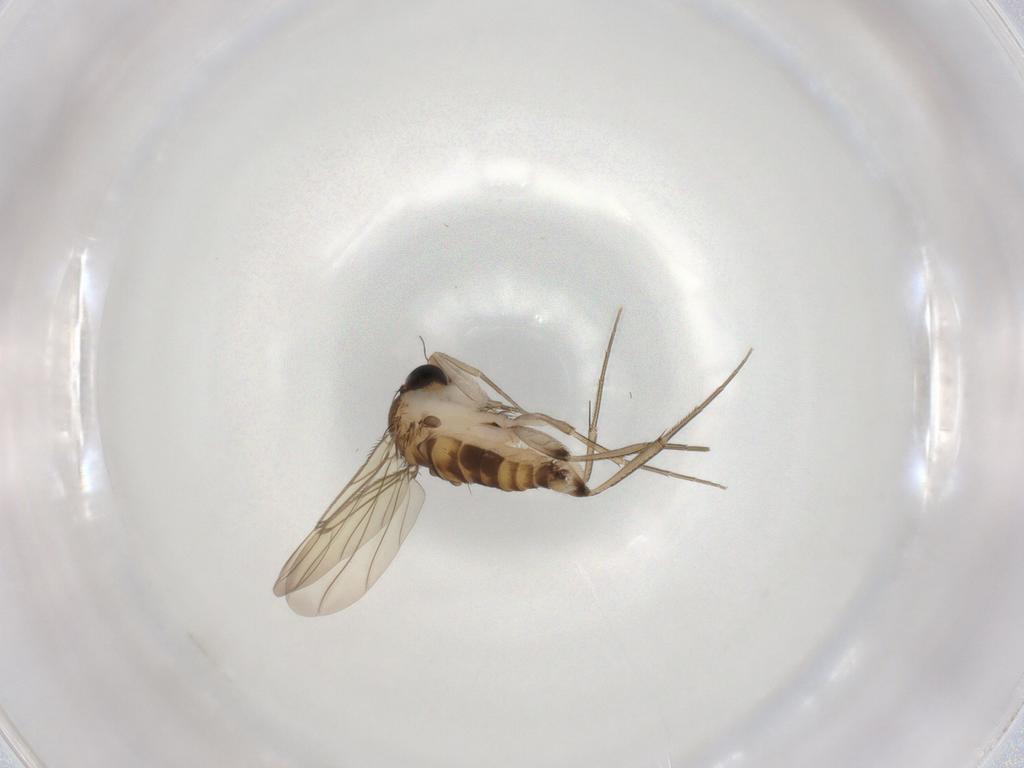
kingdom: Animalia
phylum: Arthropoda
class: Insecta
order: Diptera
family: Phoridae
